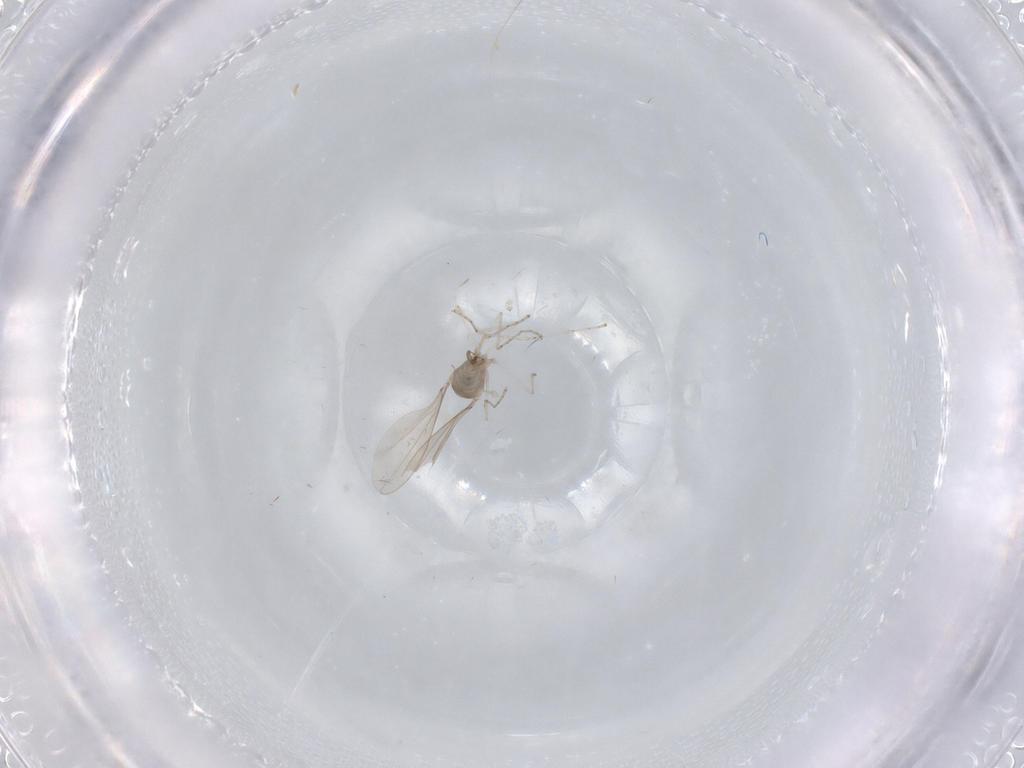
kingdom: Animalia
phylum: Arthropoda
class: Insecta
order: Diptera
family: Cecidomyiidae
